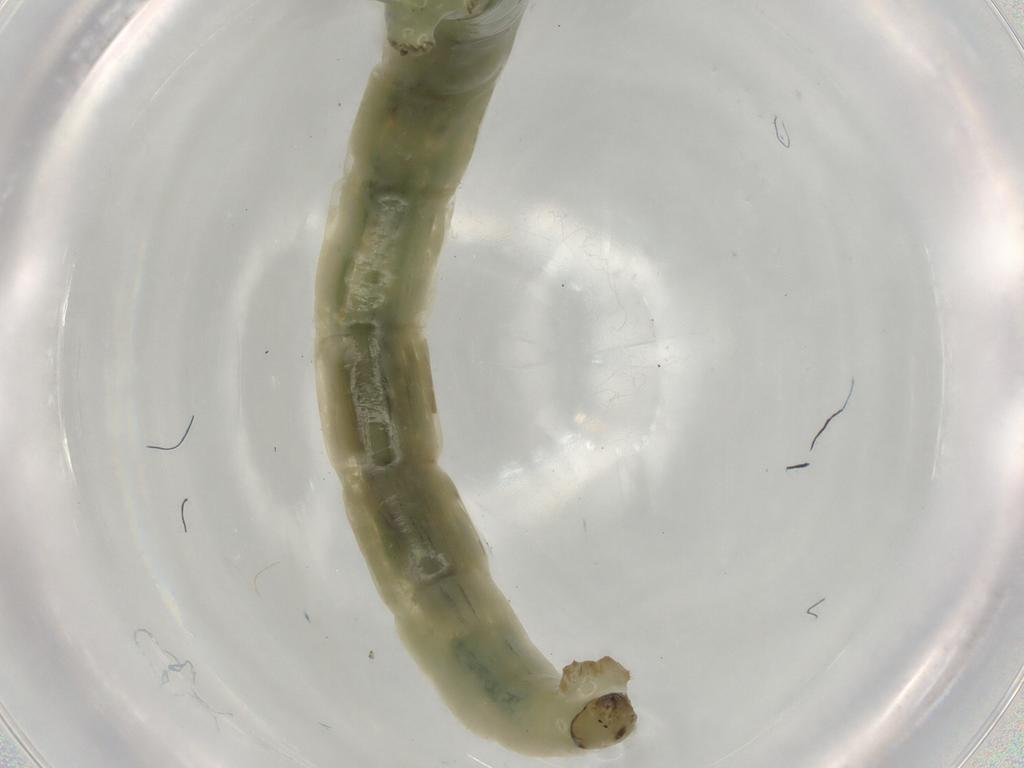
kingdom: Animalia
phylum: Arthropoda
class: Insecta
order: Diptera
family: Chironomidae
